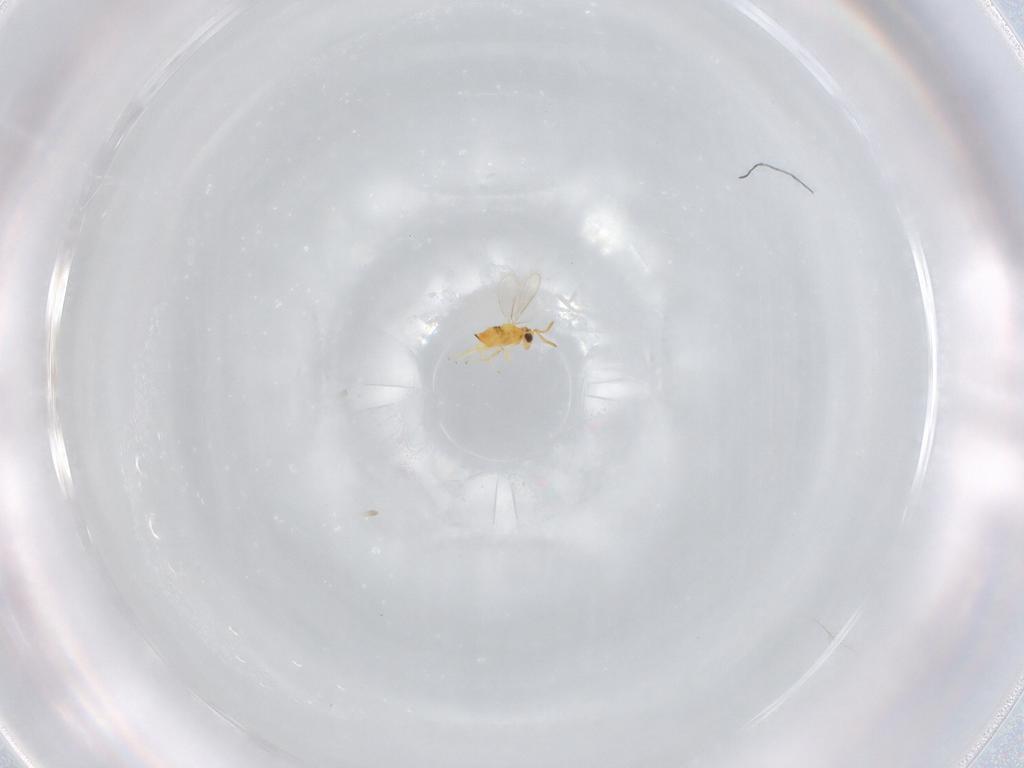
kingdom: Animalia
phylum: Arthropoda
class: Insecta
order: Hymenoptera
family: Aphelinidae
